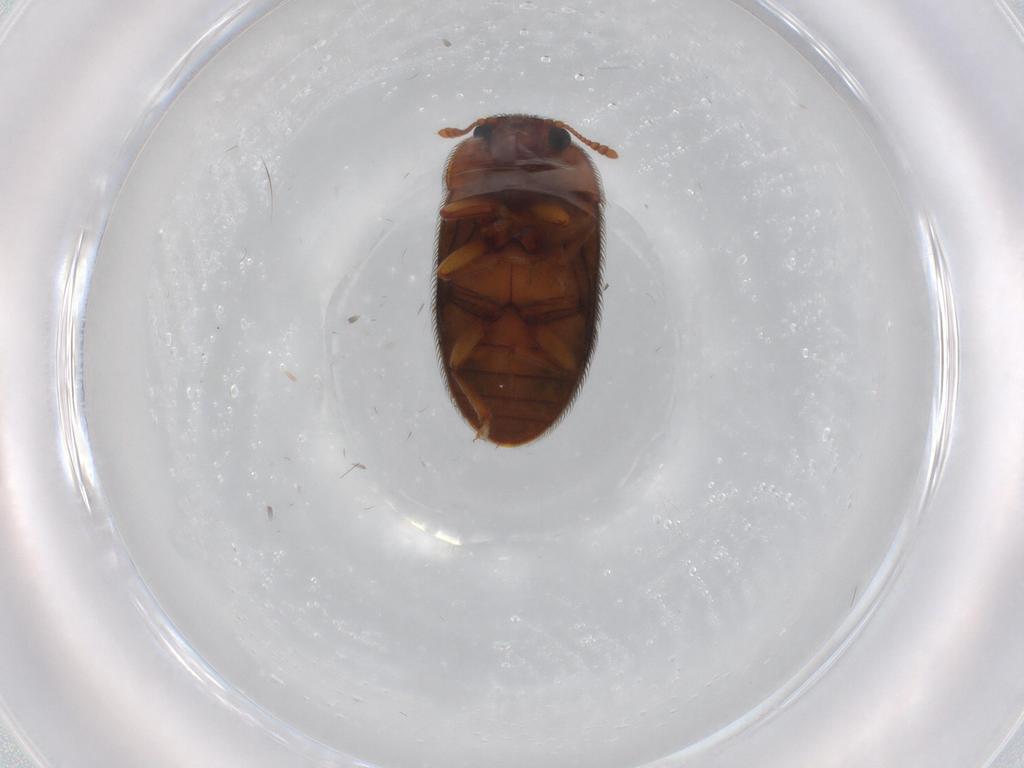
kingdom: Animalia
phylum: Arthropoda
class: Insecta
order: Coleoptera
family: Biphyllidae
